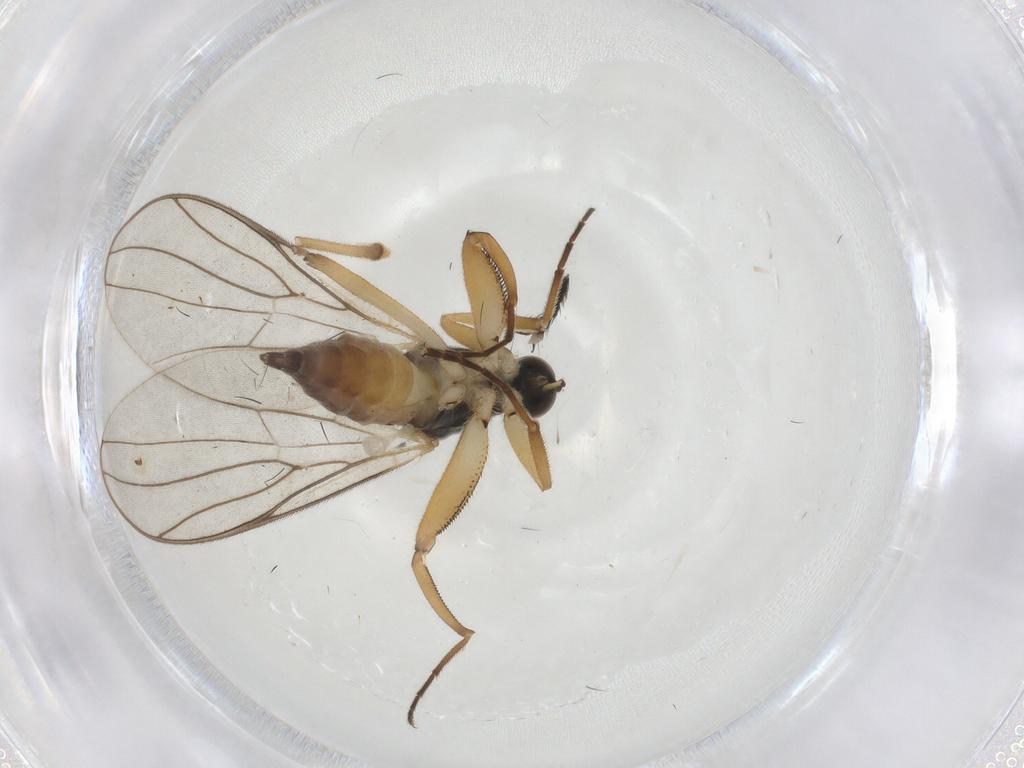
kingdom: Animalia
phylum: Arthropoda
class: Insecta
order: Diptera
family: Hybotidae
